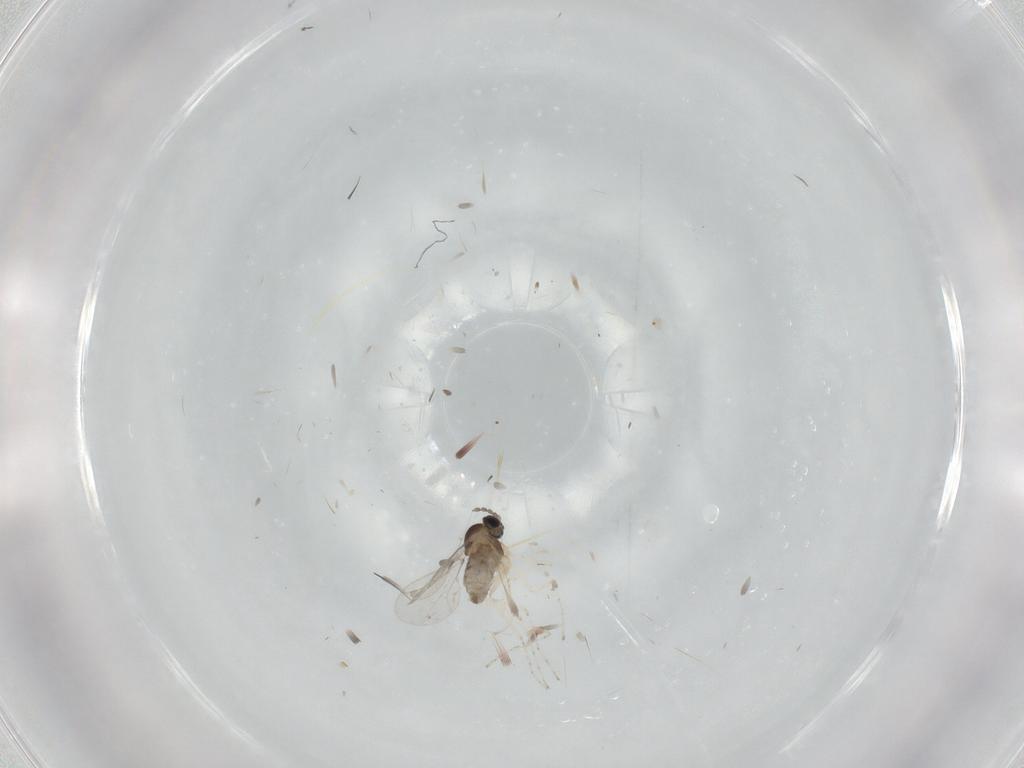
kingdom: Animalia
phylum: Arthropoda
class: Insecta
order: Diptera
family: Cecidomyiidae
